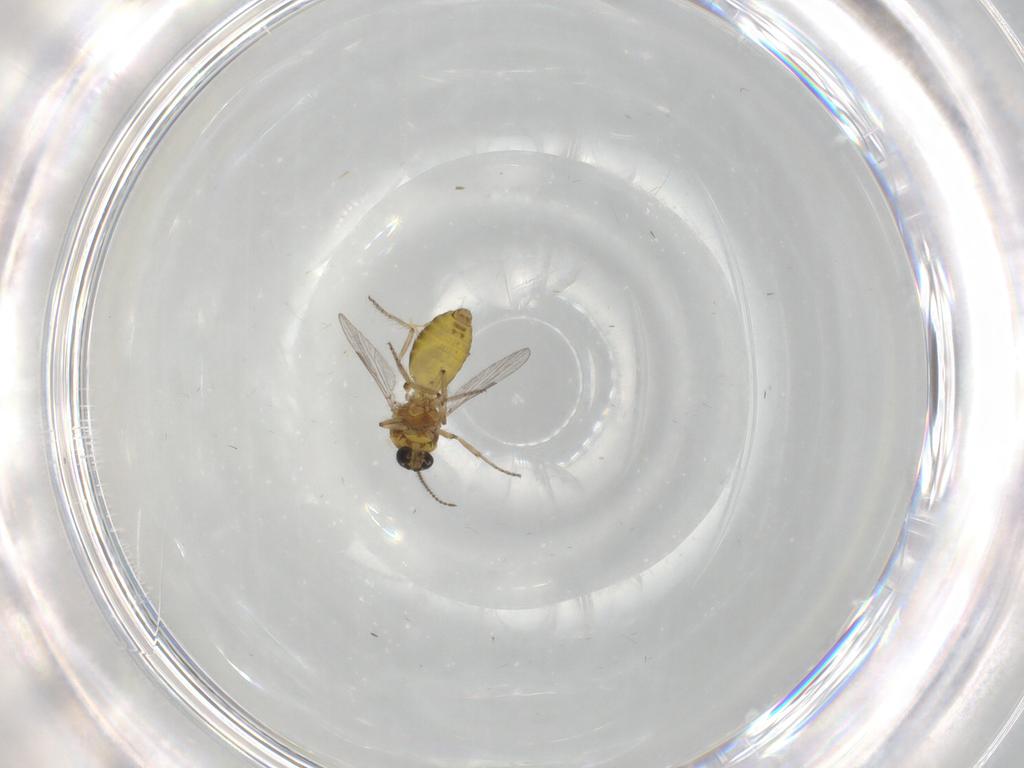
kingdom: Animalia
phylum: Arthropoda
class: Insecta
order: Diptera
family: Ceratopogonidae
